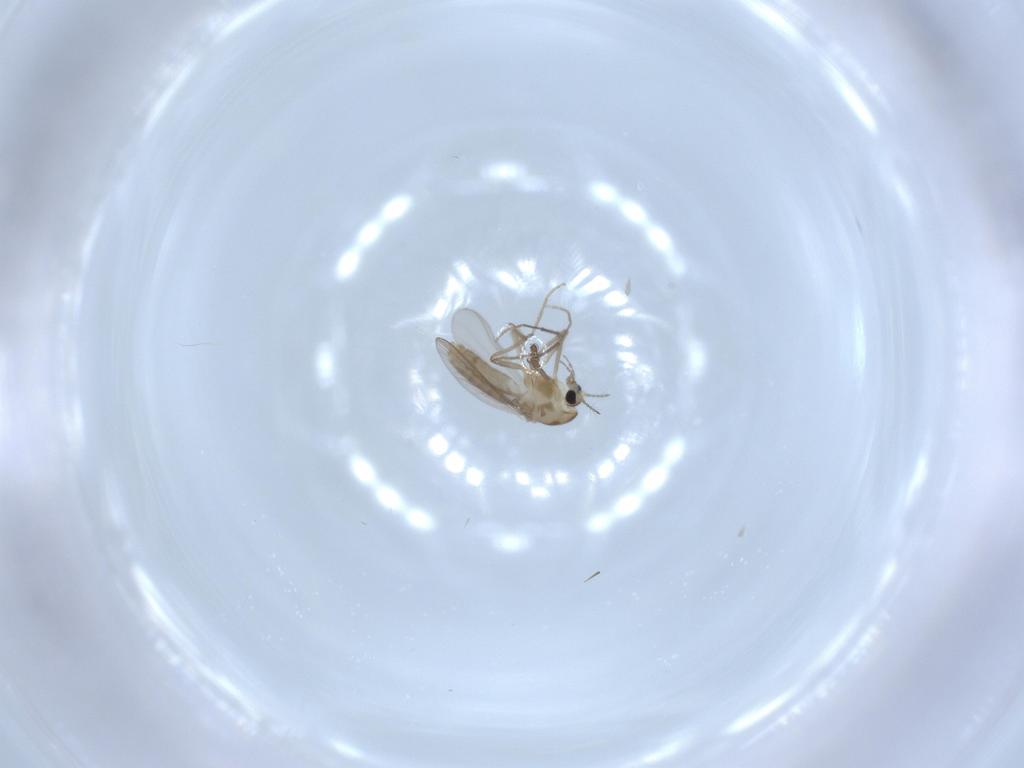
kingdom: Animalia
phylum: Arthropoda
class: Insecta
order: Diptera
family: Chironomidae
